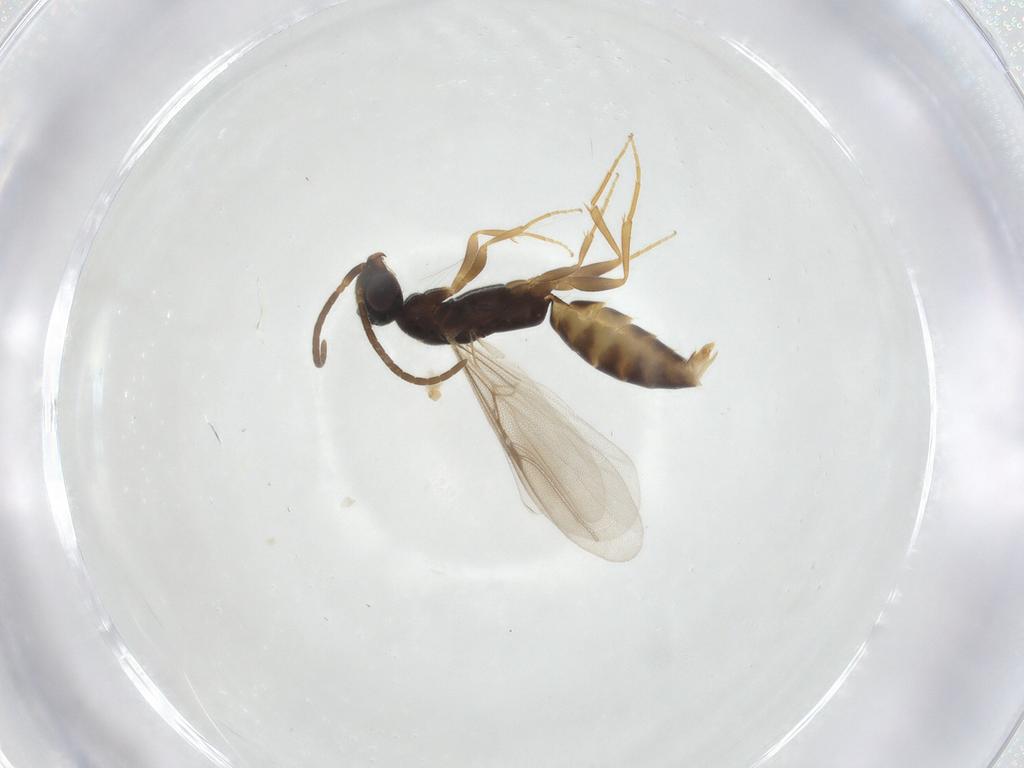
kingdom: Animalia
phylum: Arthropoda
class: Insecta
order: Hymenoptera
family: Bethylidae
